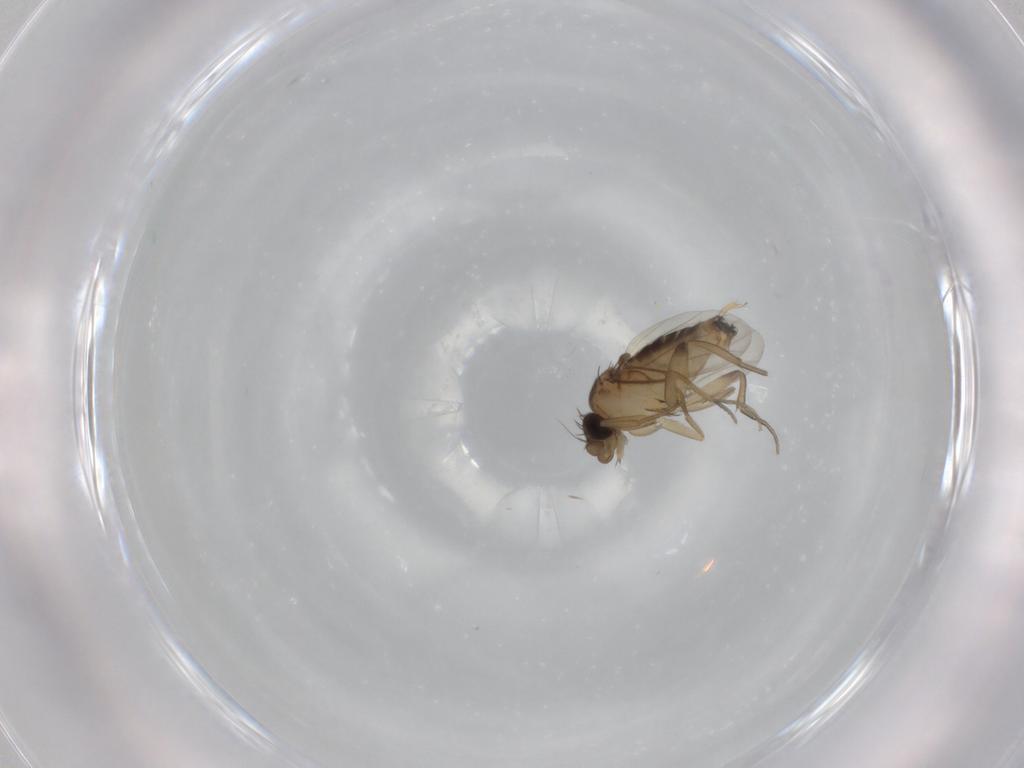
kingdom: Animalia
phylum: Arthropoda
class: Insecta
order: Diptera
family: Phoridae
